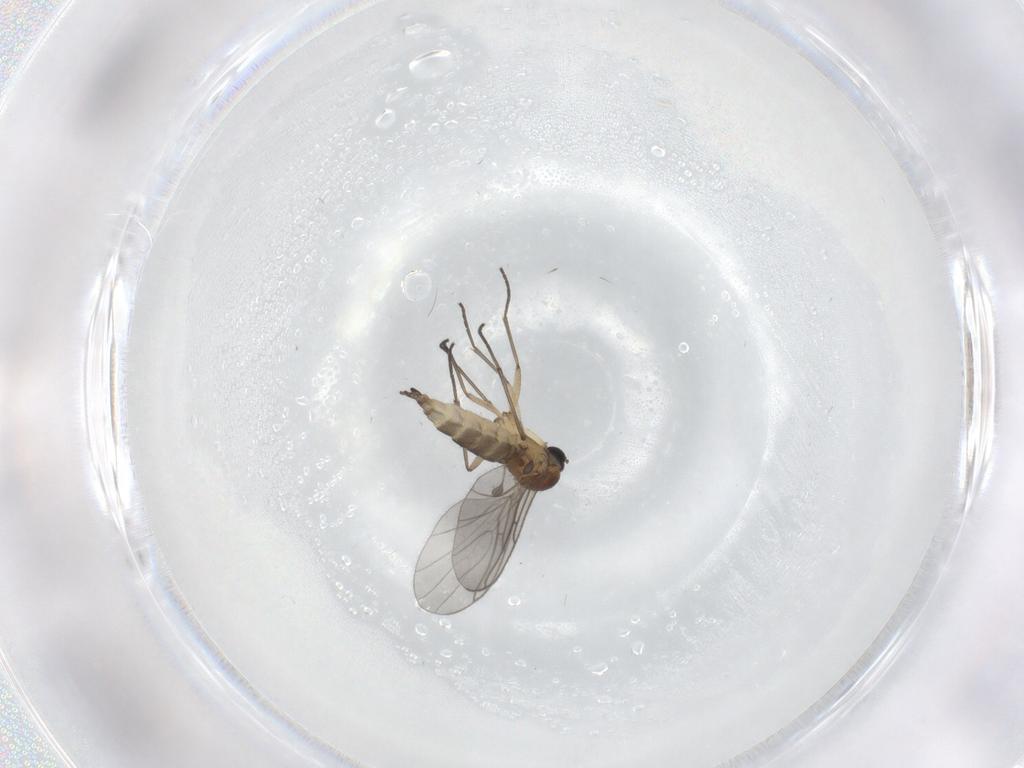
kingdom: Animalia
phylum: Arthropoda
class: Insecta
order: Diptera
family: Sciaridae
